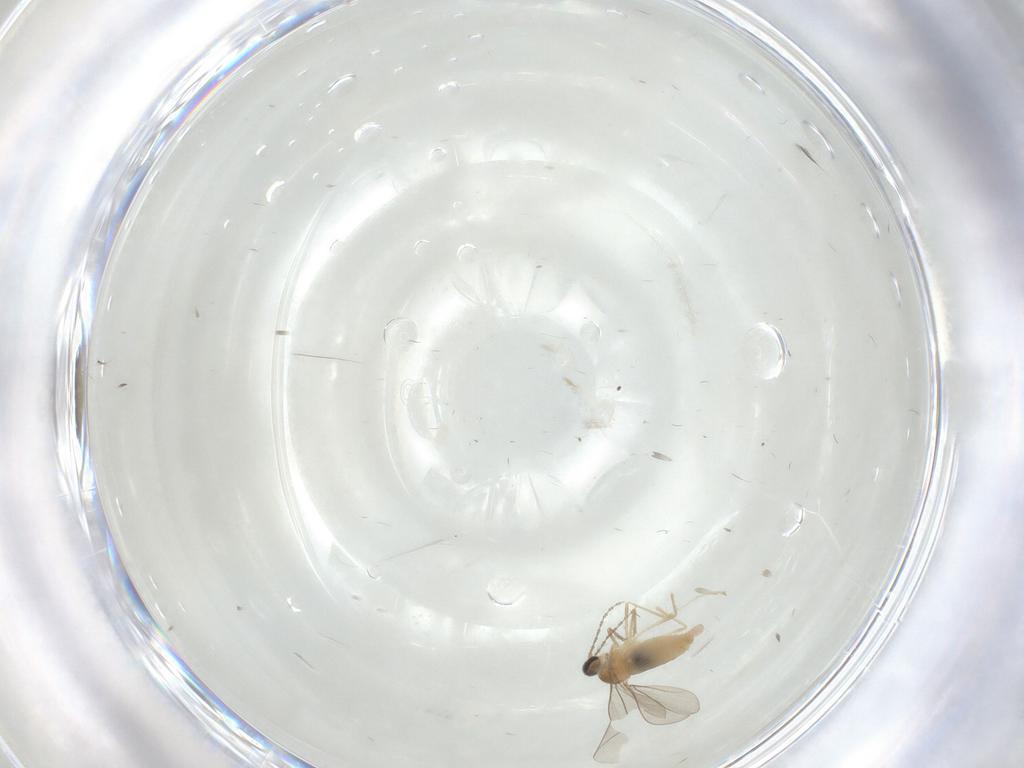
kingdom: Animalia
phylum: Arthropoda
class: Insecta
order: Diptera
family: Cecidomyiidae
